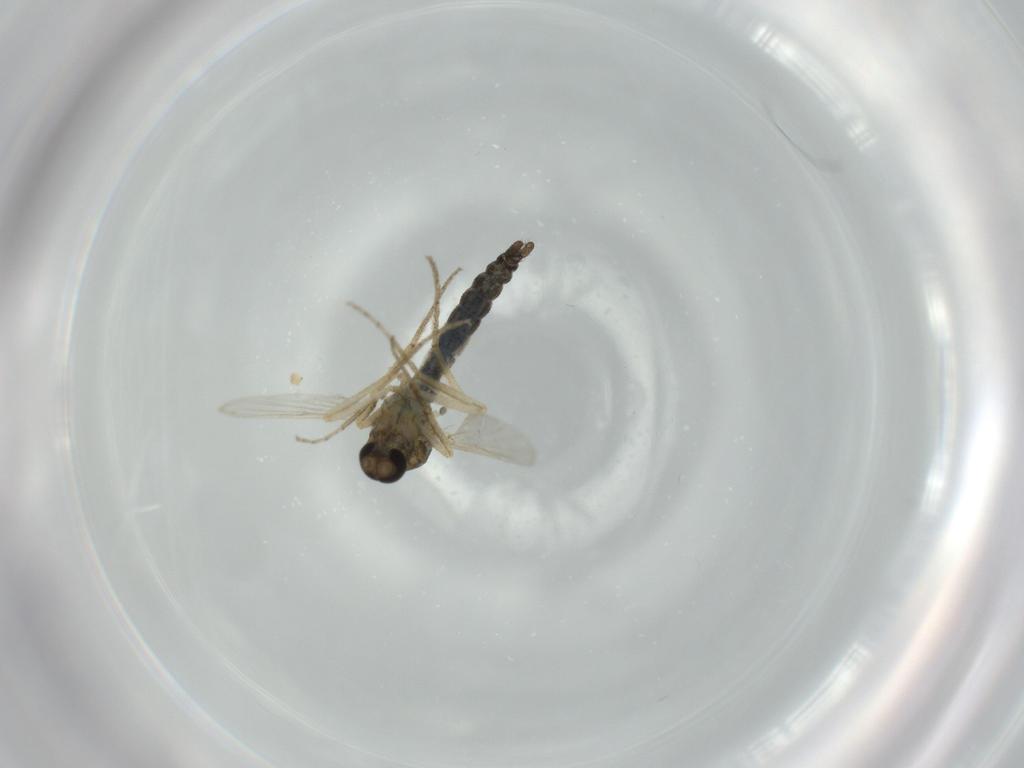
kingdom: Animalia
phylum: Arthropoda
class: Insecta
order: Diptera
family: Ceratopogonidae
